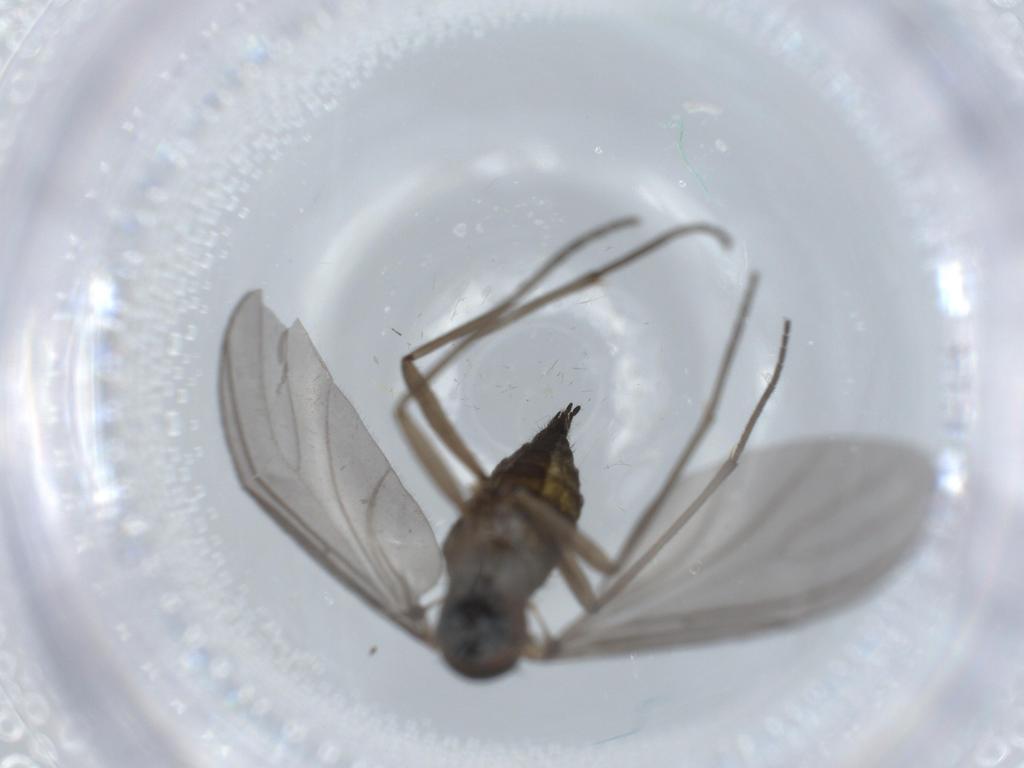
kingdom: Animalia
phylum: Arthropoda
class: Insecta
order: Diptera
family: Sciaridae
